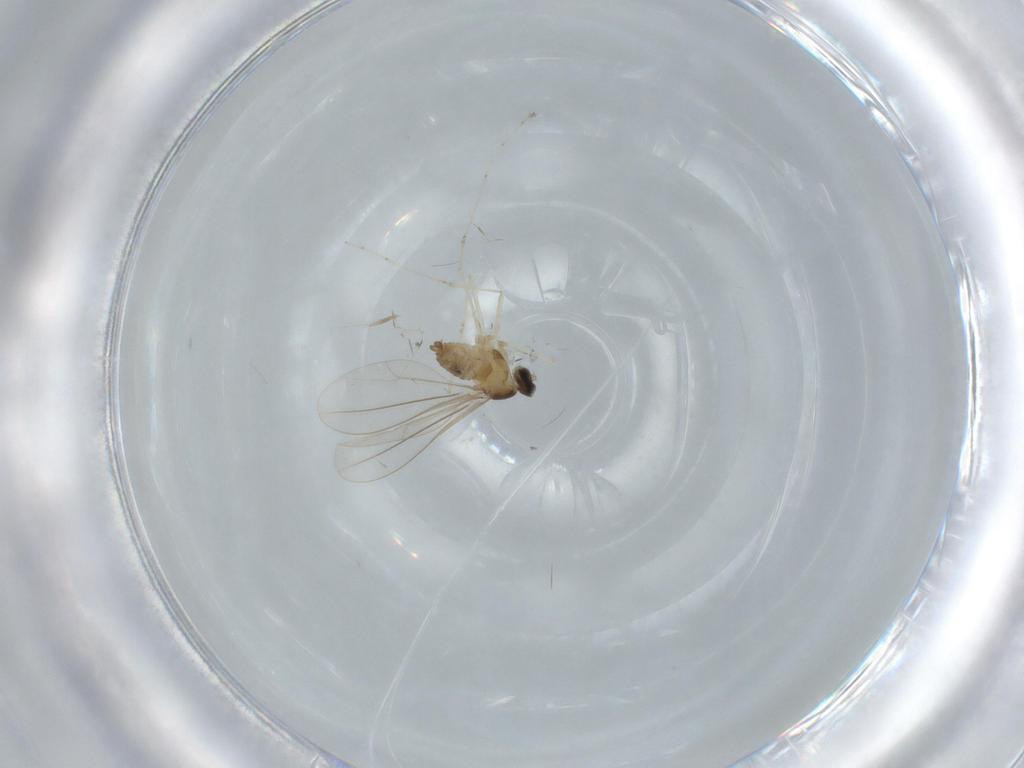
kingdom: Animalia
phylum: Arthropoda
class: Insecta
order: Diptera
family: Cecidomyiidae
